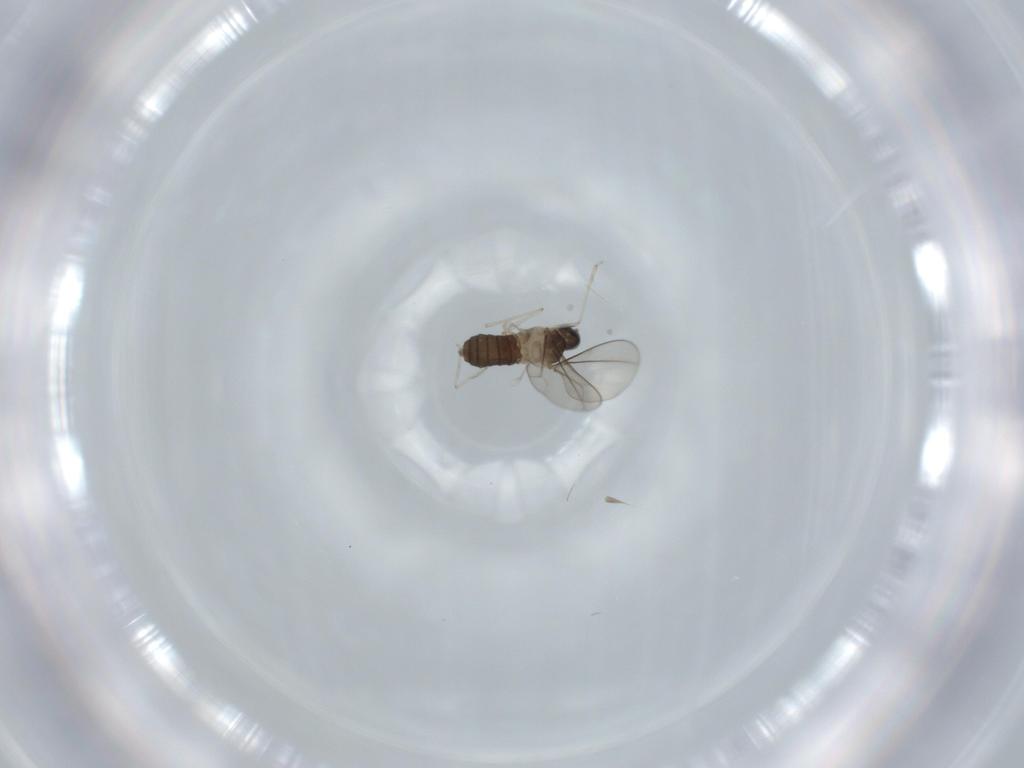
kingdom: Animalia
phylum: Arthropoda
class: Insecta
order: Diptera
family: Cecidomyiidae
